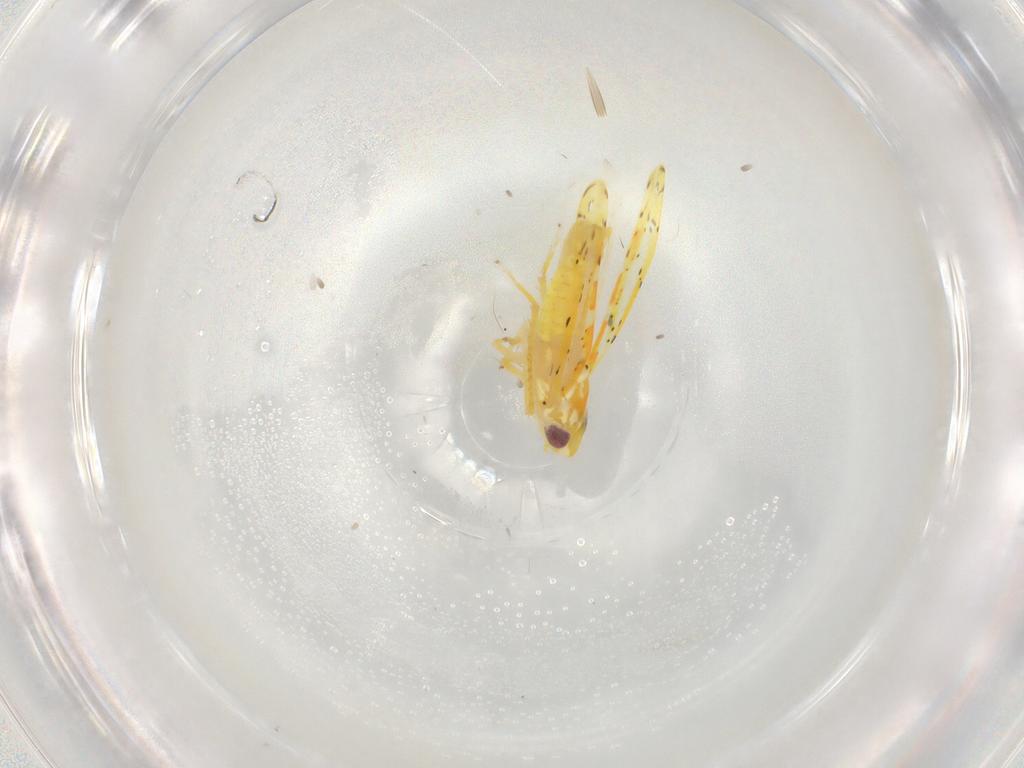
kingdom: Animalia
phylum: Arthropoda
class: Insecta
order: Hemiptera
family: Cicadellidae
